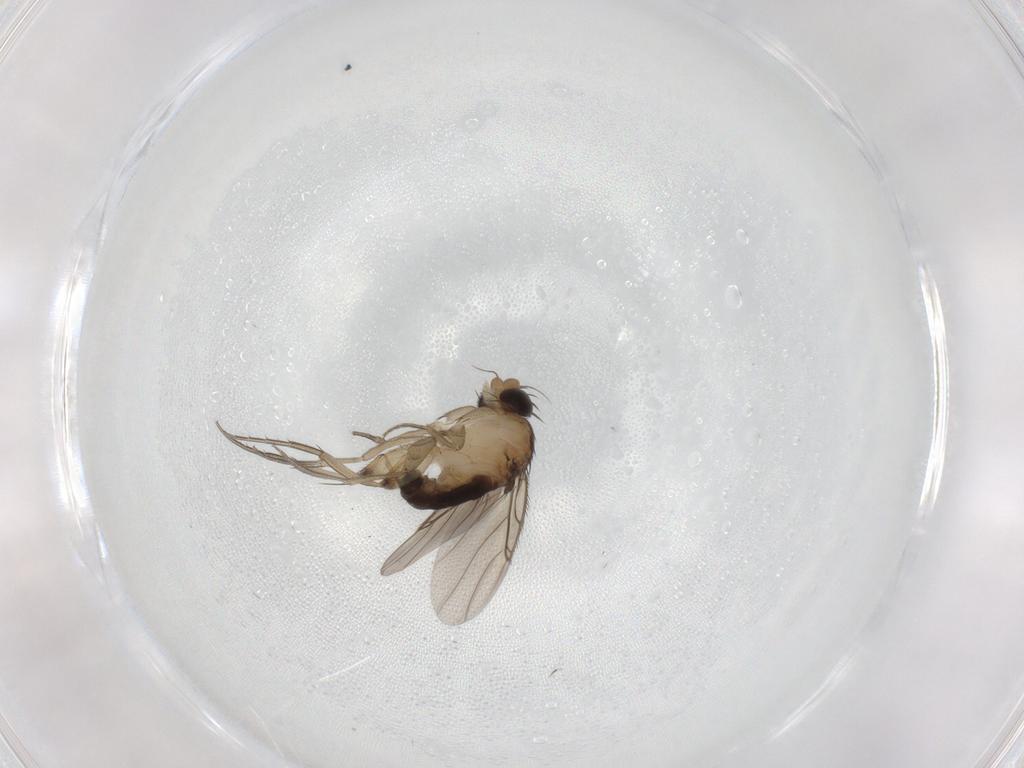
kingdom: Animalia
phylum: Arthropoda
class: Insecta
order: Diptera
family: Phoridae
